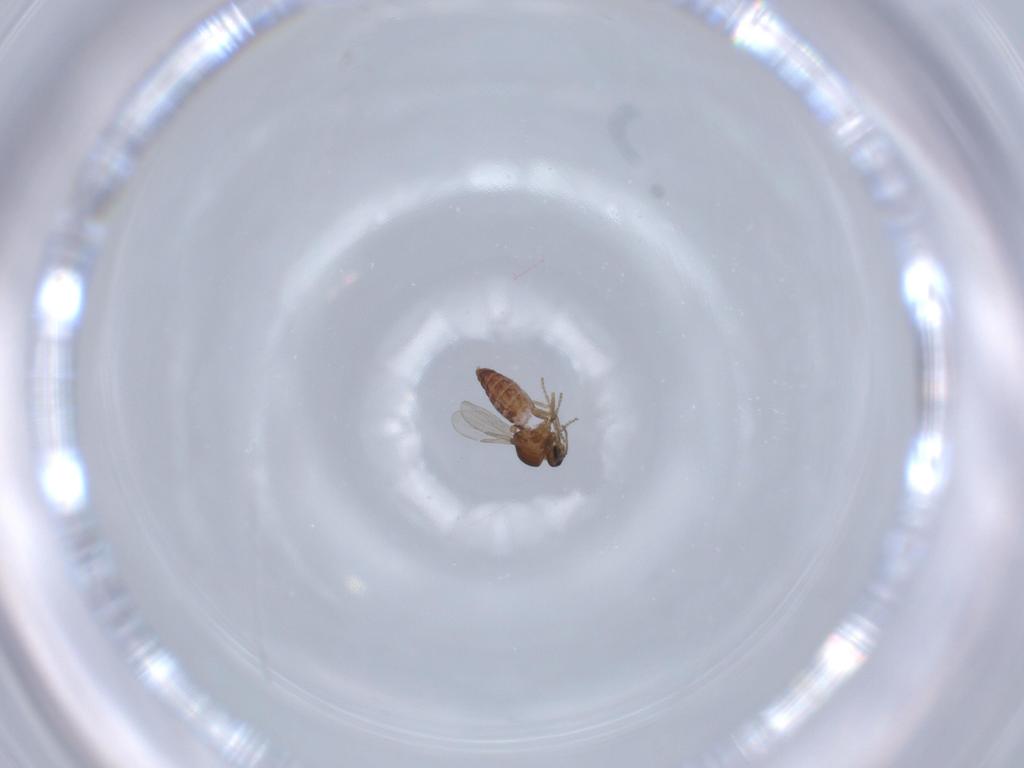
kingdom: Animalia
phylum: Arthropoda
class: Insecta
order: Diptera
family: Ceratopogonidae
